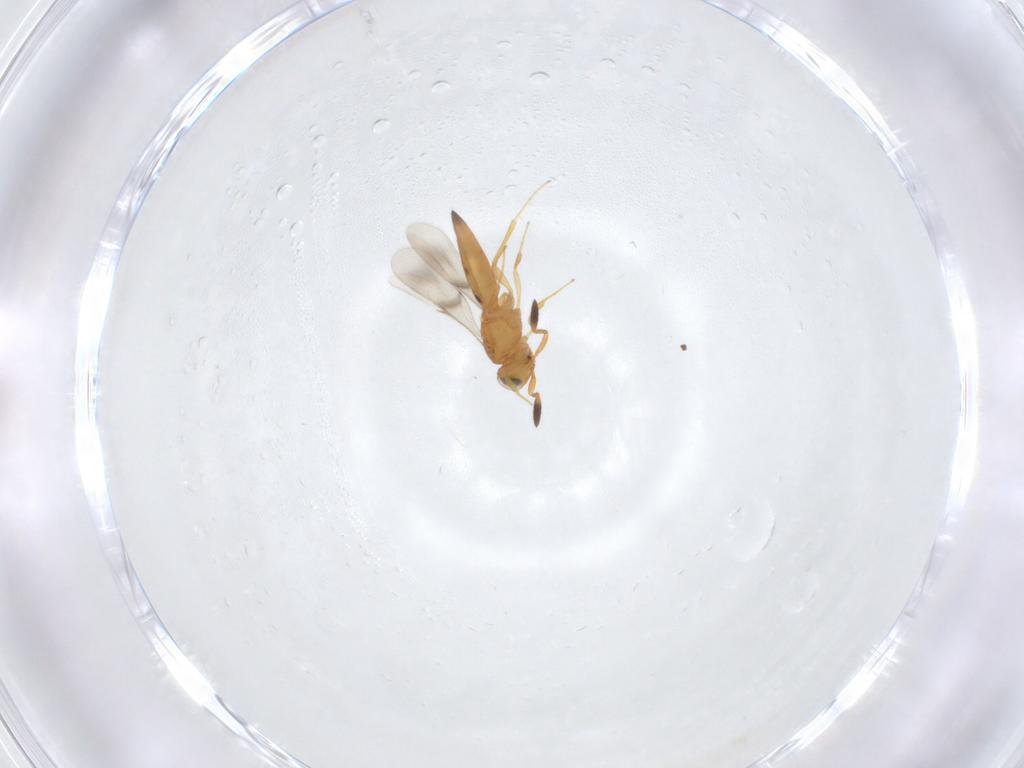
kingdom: Animalia
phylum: Arthropoda
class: Insecta
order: Hymenoptera
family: Scelionidae
